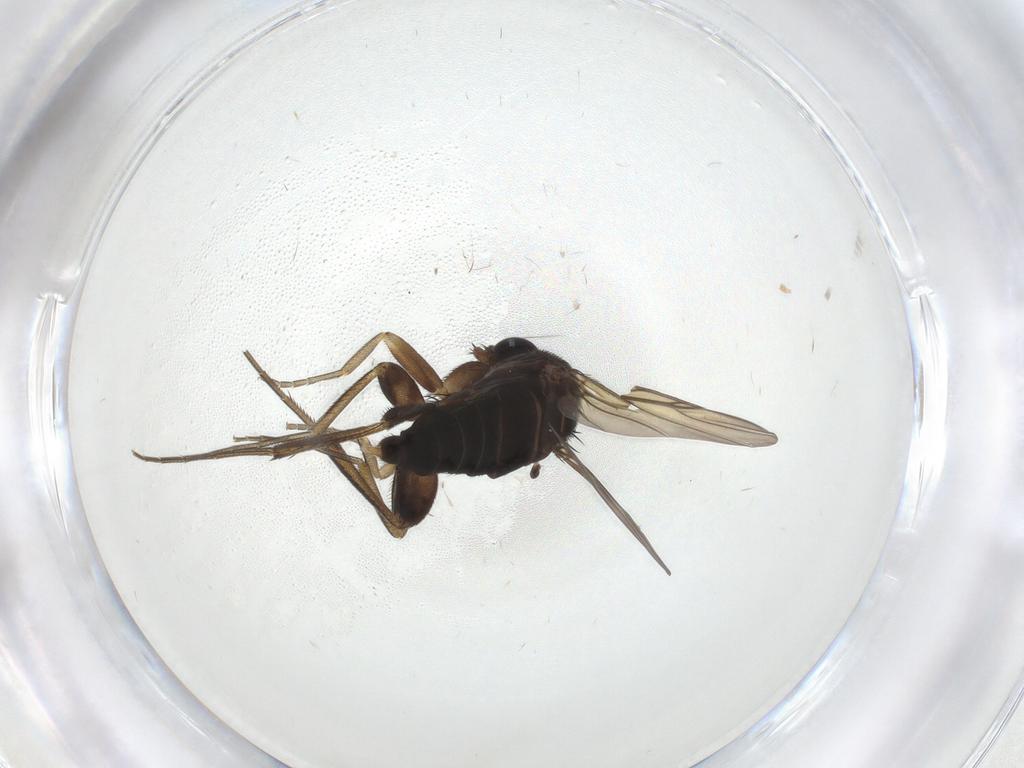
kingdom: Animalia
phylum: Arthropoda
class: Insecta
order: Diptera
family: Phoridae
